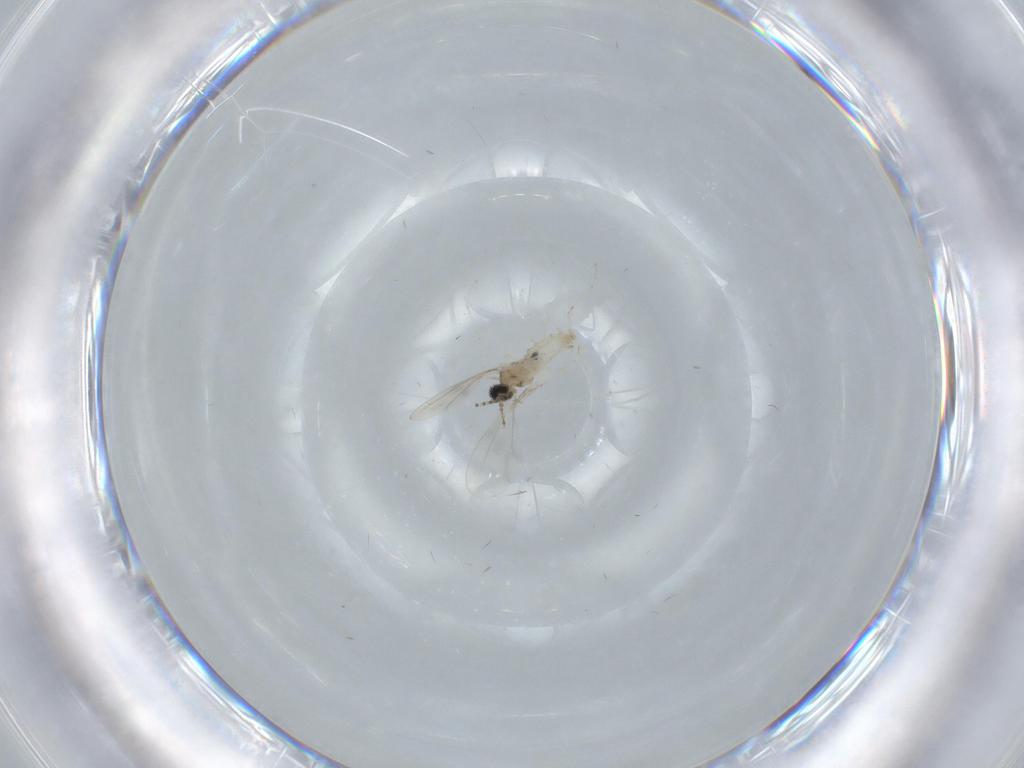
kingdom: Animalia
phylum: Arthropoda
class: Insecta
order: Diptera
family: Cecidomyiidae
